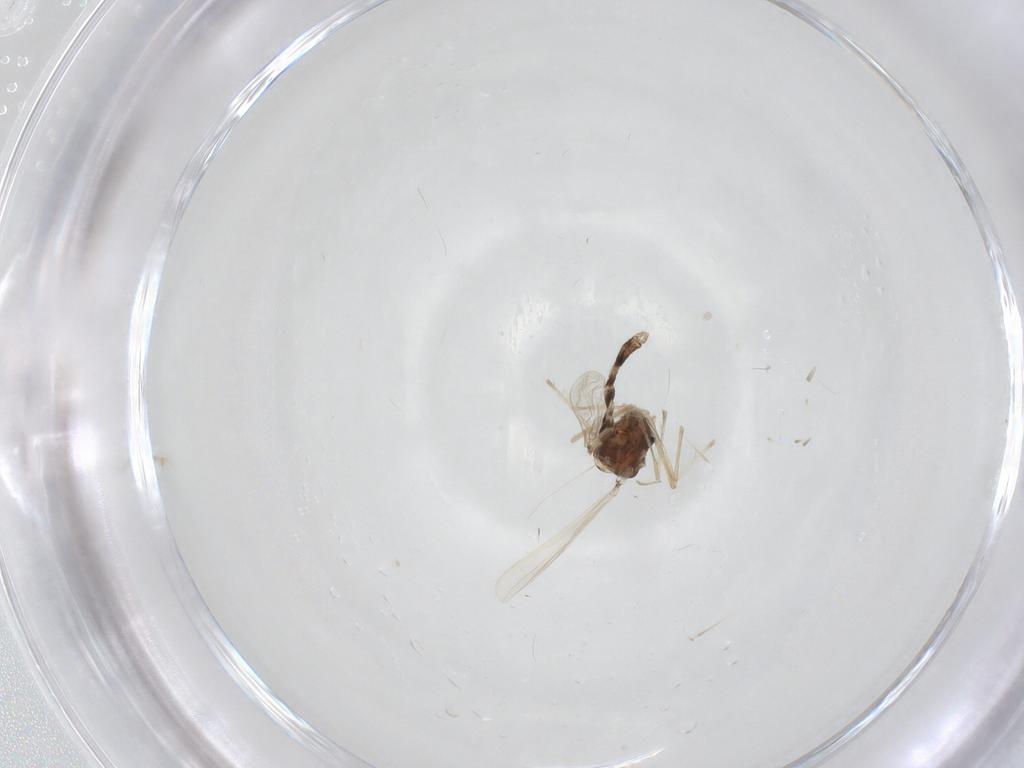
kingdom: Animalia
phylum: Arthropoda
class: Insecta
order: Diptera
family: Chironomidae
